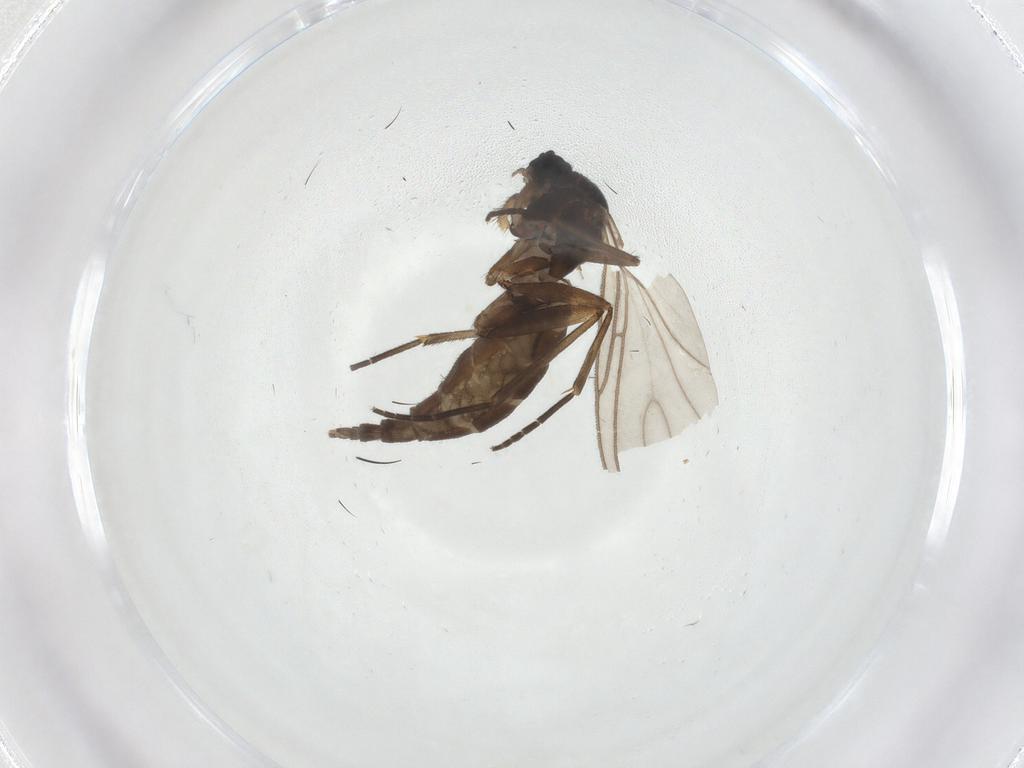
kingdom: Animalia
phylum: Arthropoda
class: Insecta
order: Diptera
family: Sciaridae
